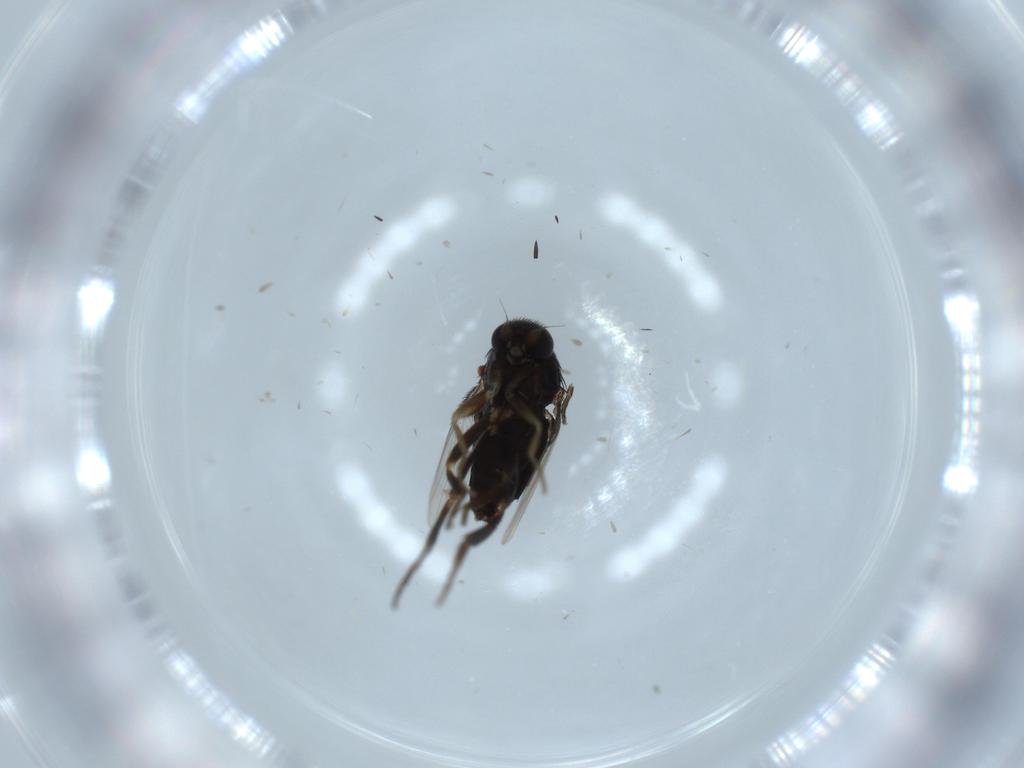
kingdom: Animalia
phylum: Arthropoda
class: Insecta
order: Diptera
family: Phoridae
